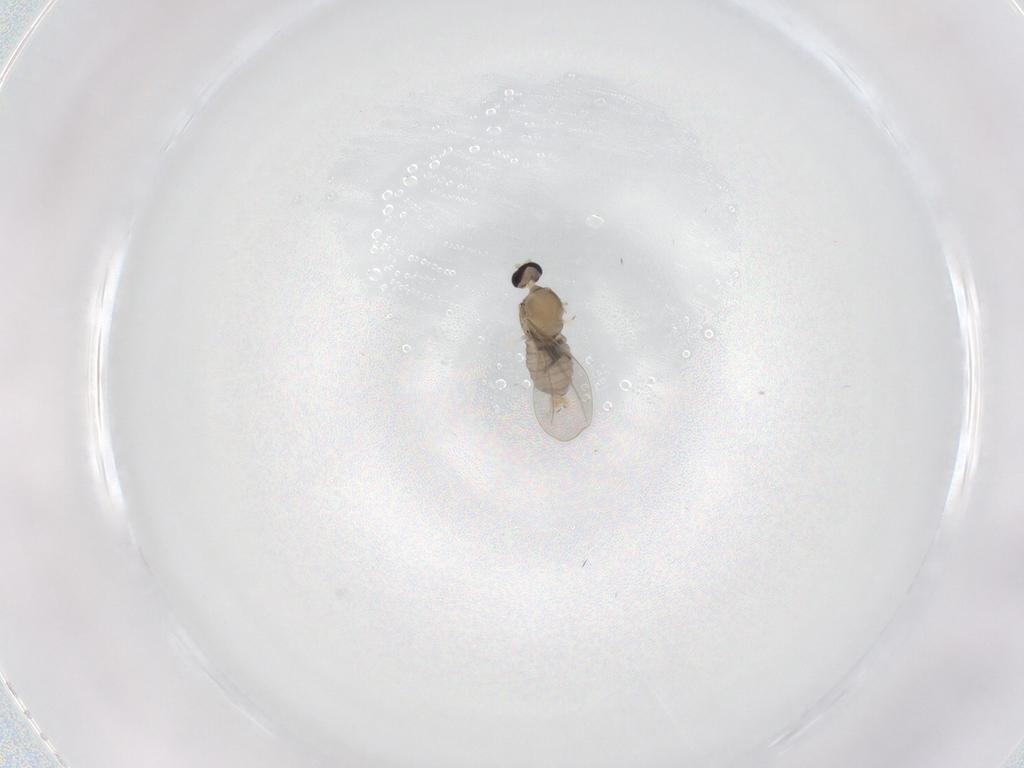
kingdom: Animalia
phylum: Arthropoda
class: Insecta
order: Diptera
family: Cecidomyiidae
